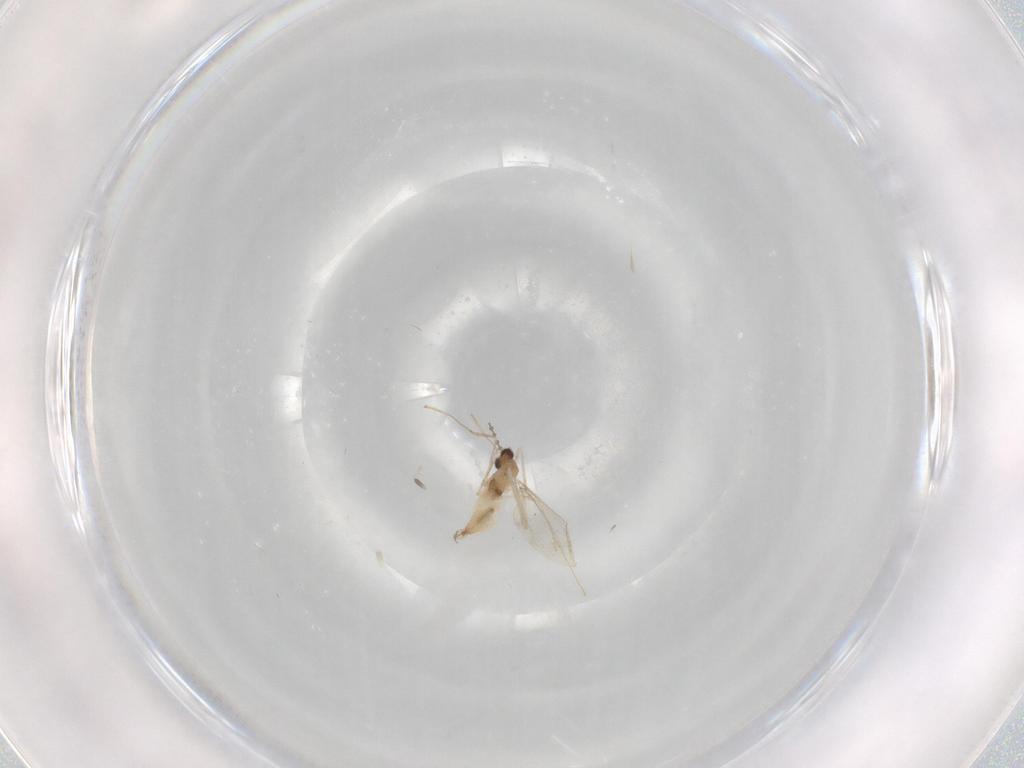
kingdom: Animalia
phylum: Arthropoda
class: Insecta
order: Diptera
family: Cecidomyiidae
